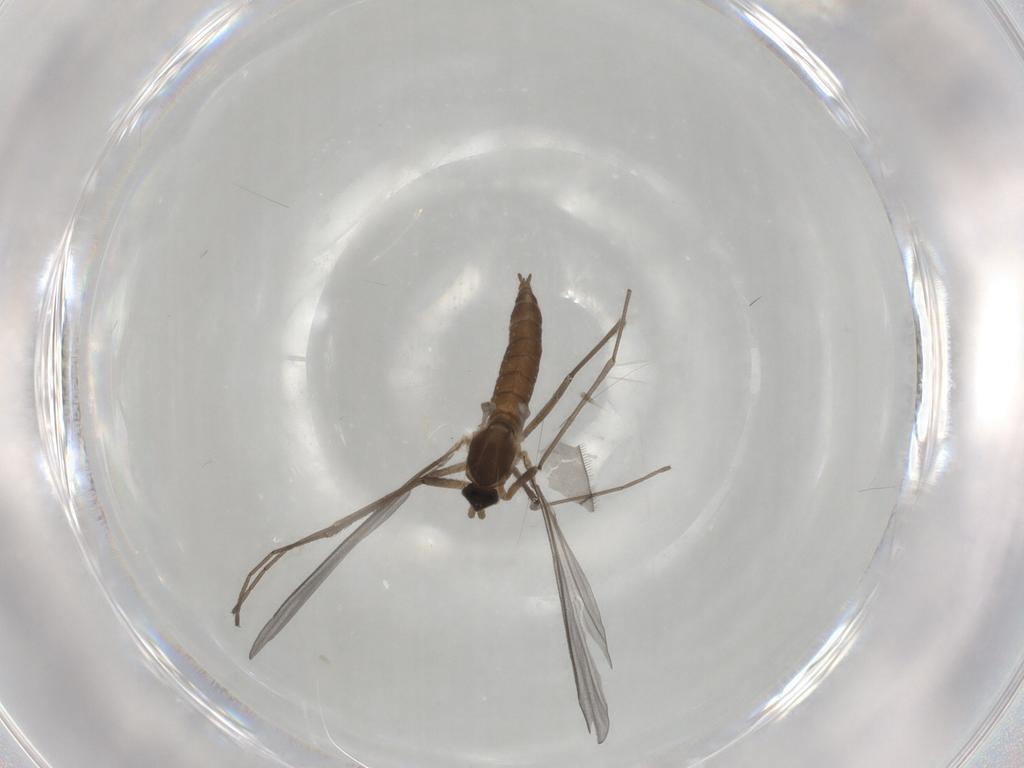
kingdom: Animalia
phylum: Arthropoda
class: Insecta
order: Diptera
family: Cecidomyiidae
